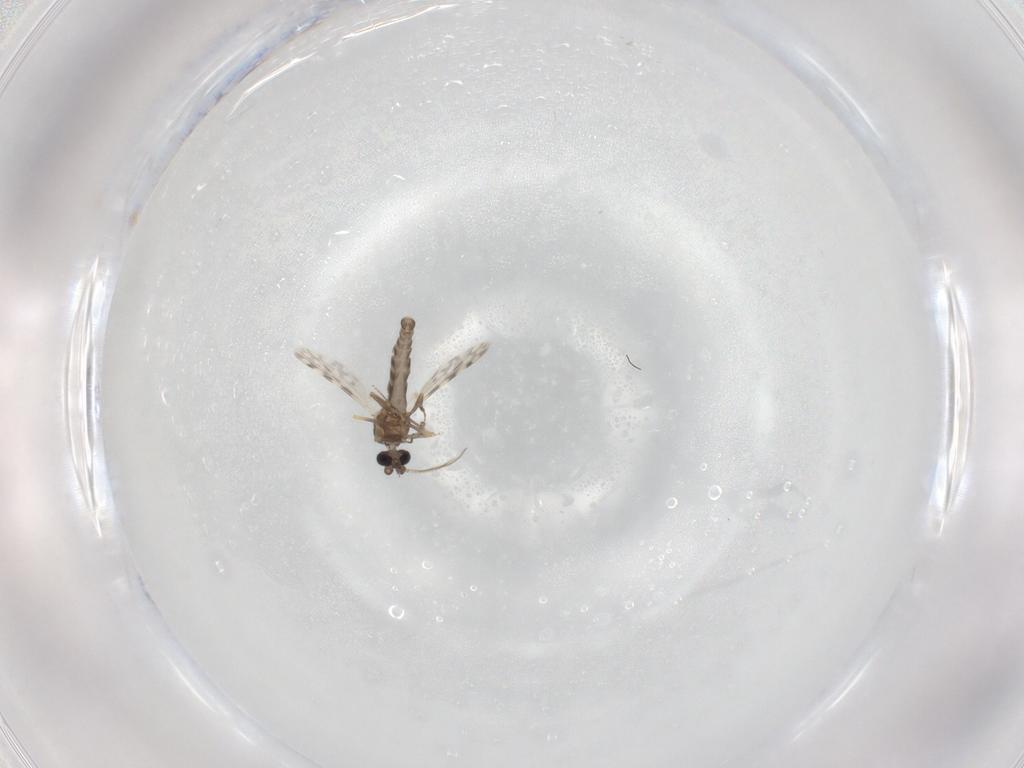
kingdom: Animalia
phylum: Arthropoda
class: Insecta
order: Diptera
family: Ceratopogonidae
